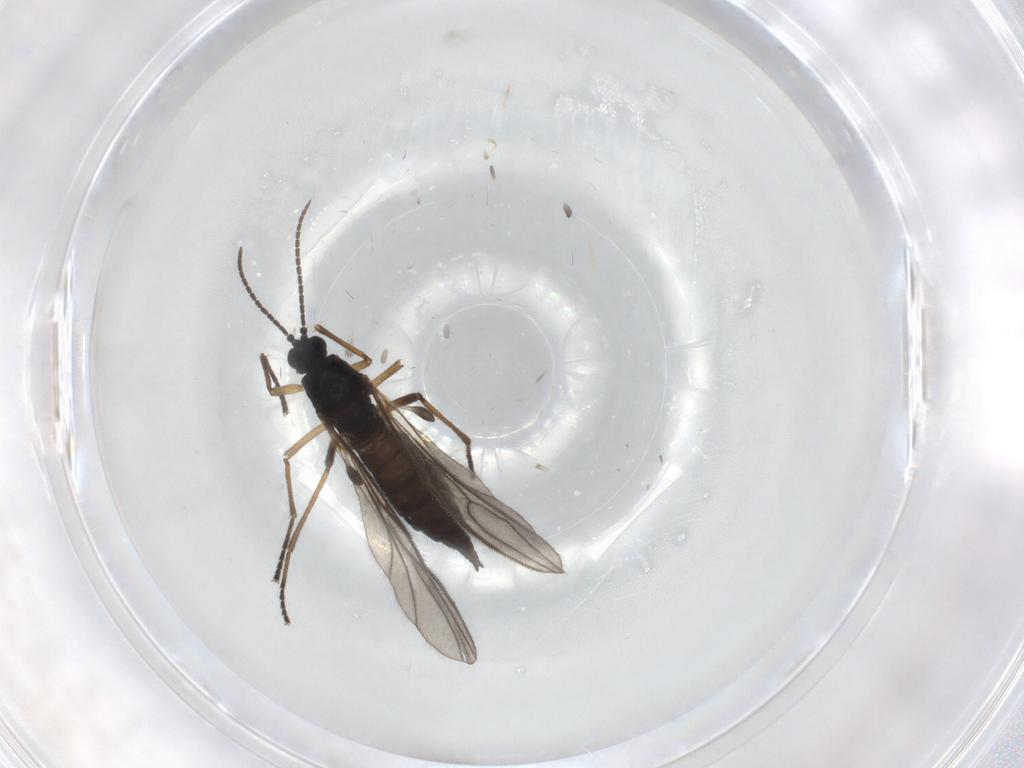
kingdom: Animalia
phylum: Arthropoda
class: Insecta
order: Diptera
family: Sciaridae
